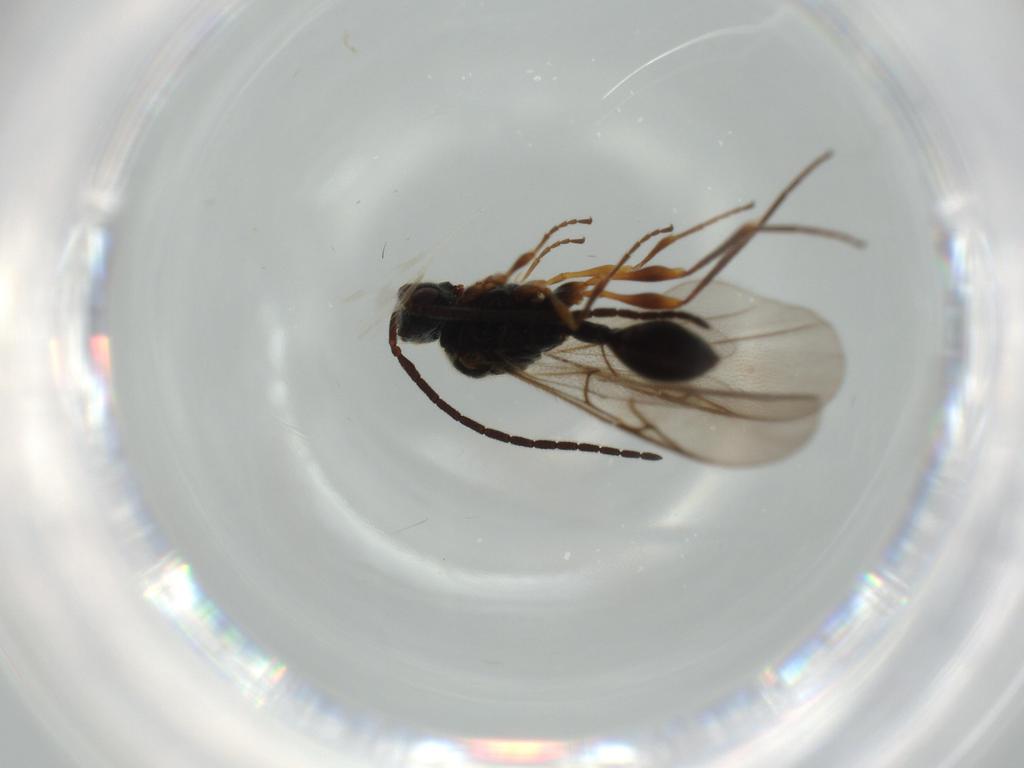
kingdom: Animalia
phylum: Arthropoda
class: Insecta
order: Hymenoptera
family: Diapriidae
